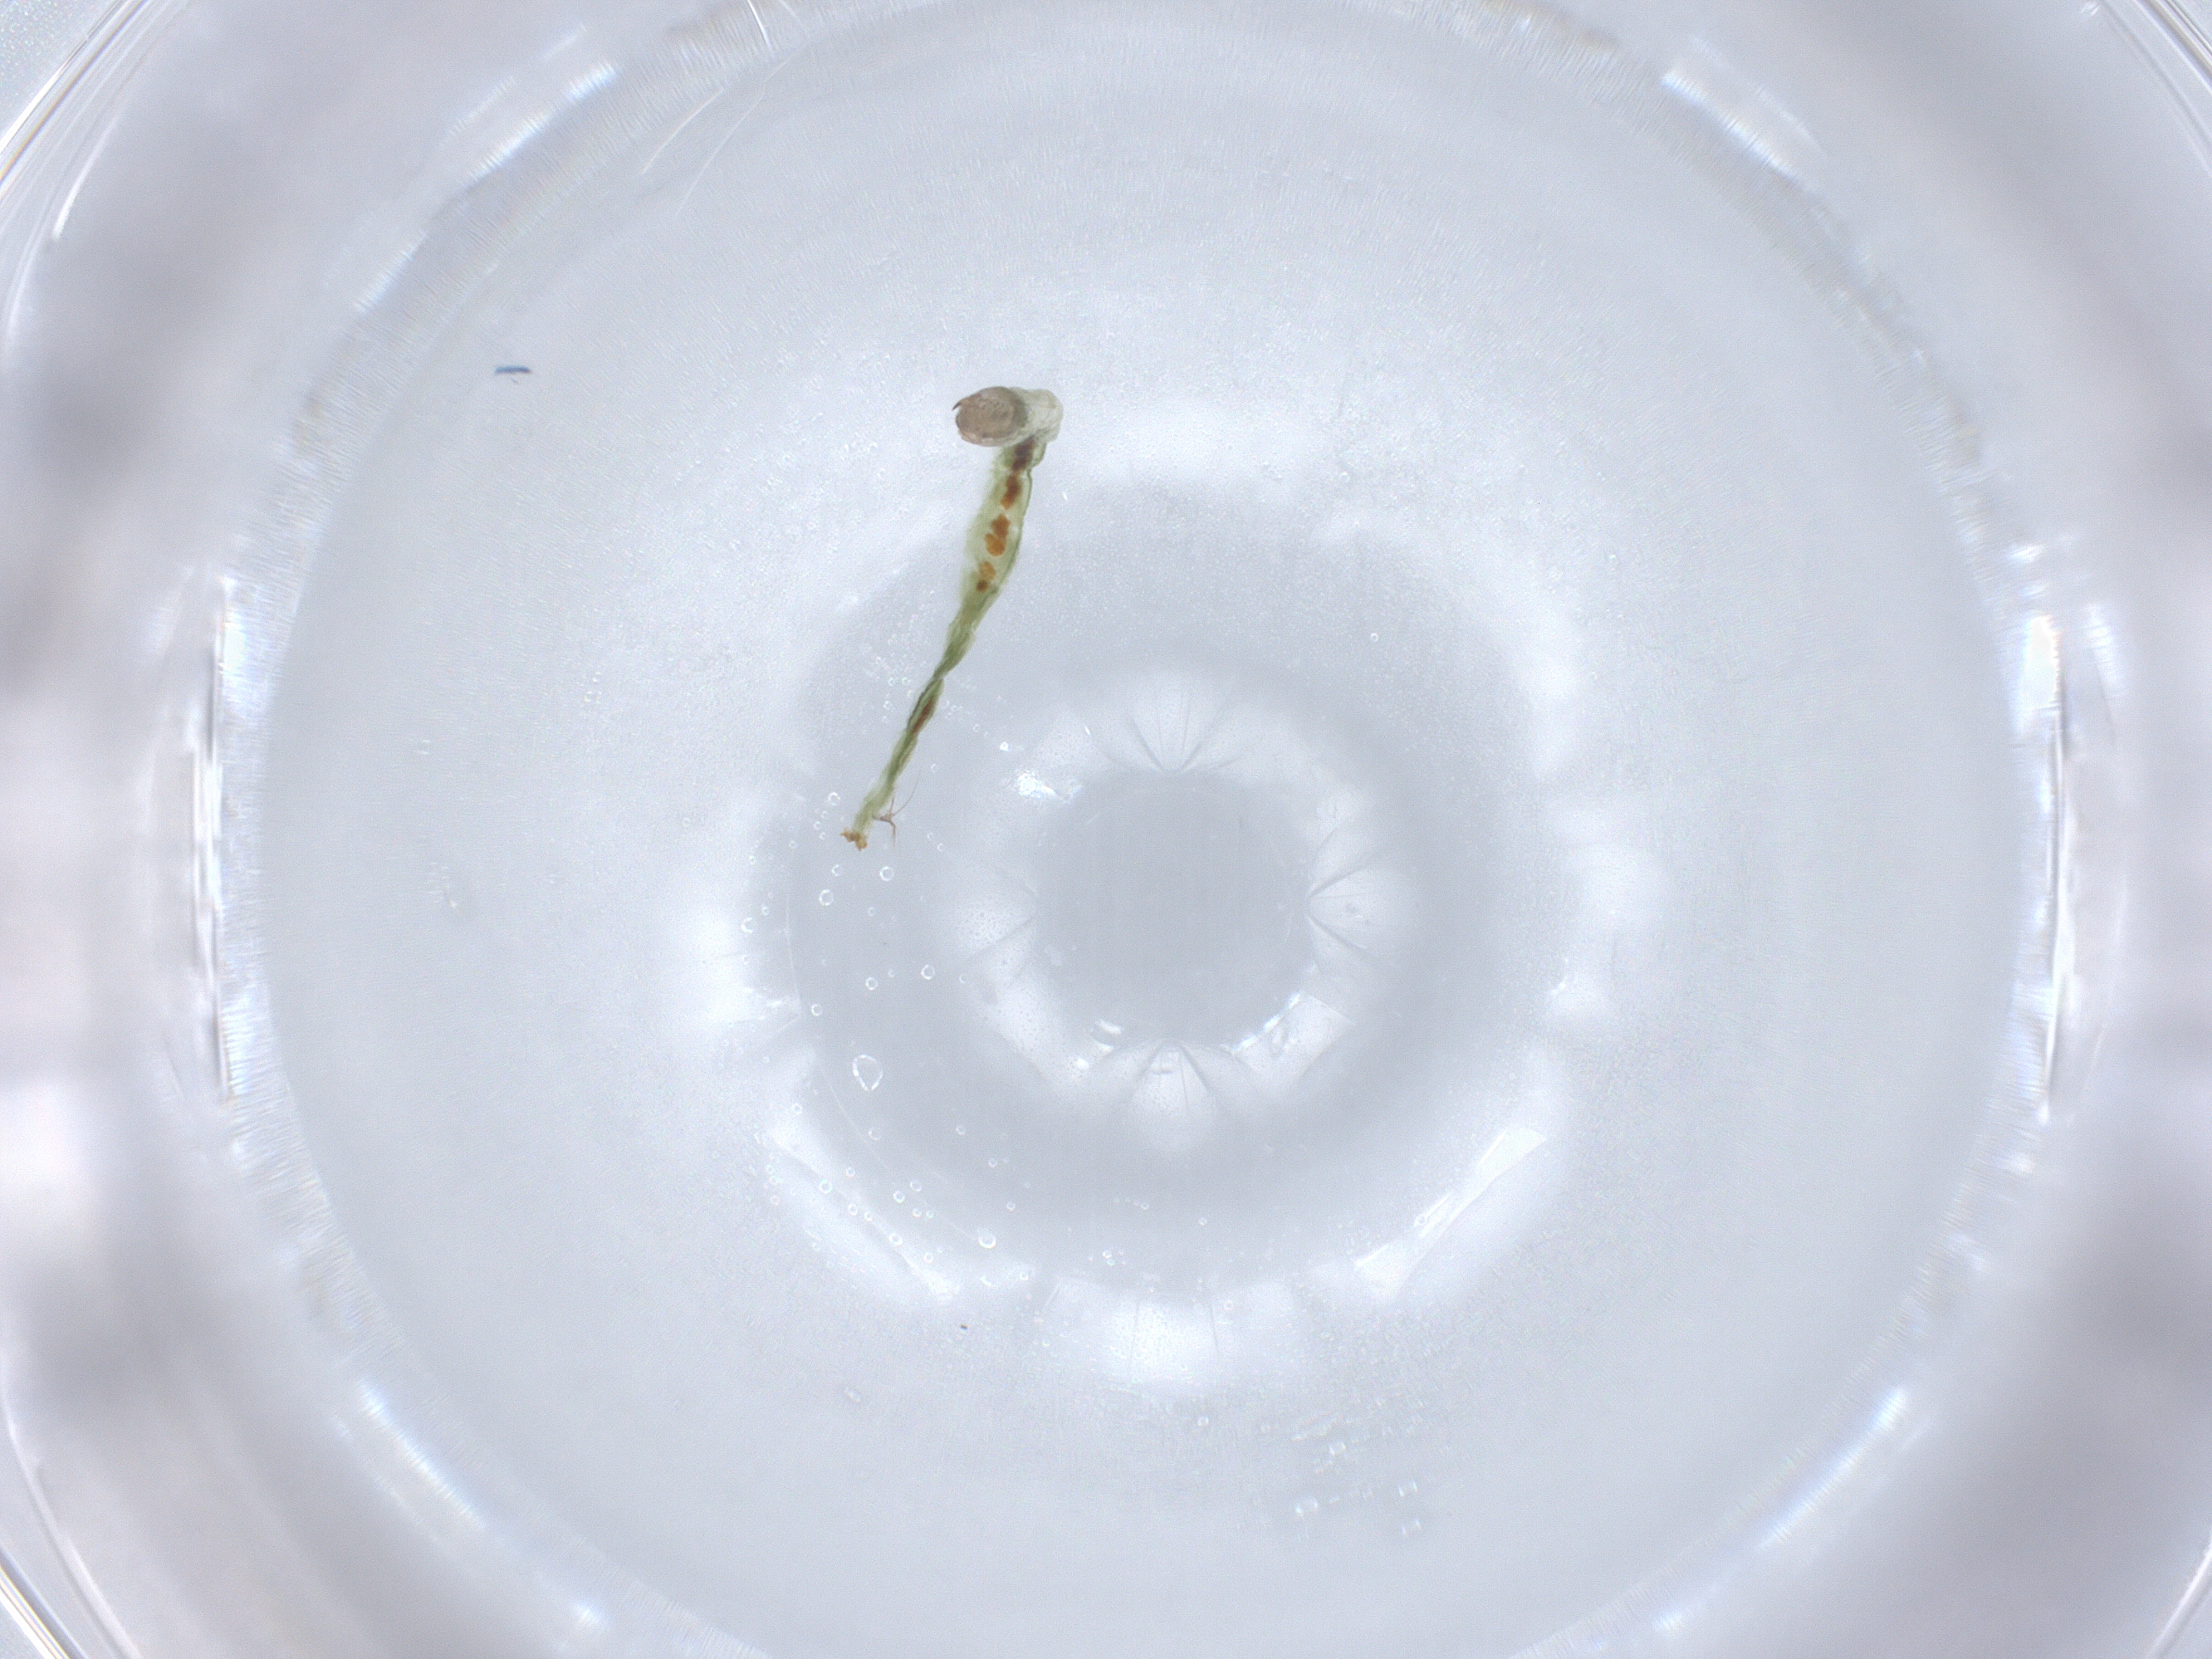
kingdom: Animalia
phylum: Arthropoda
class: Insecta
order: Diptera
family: Chironomidae
